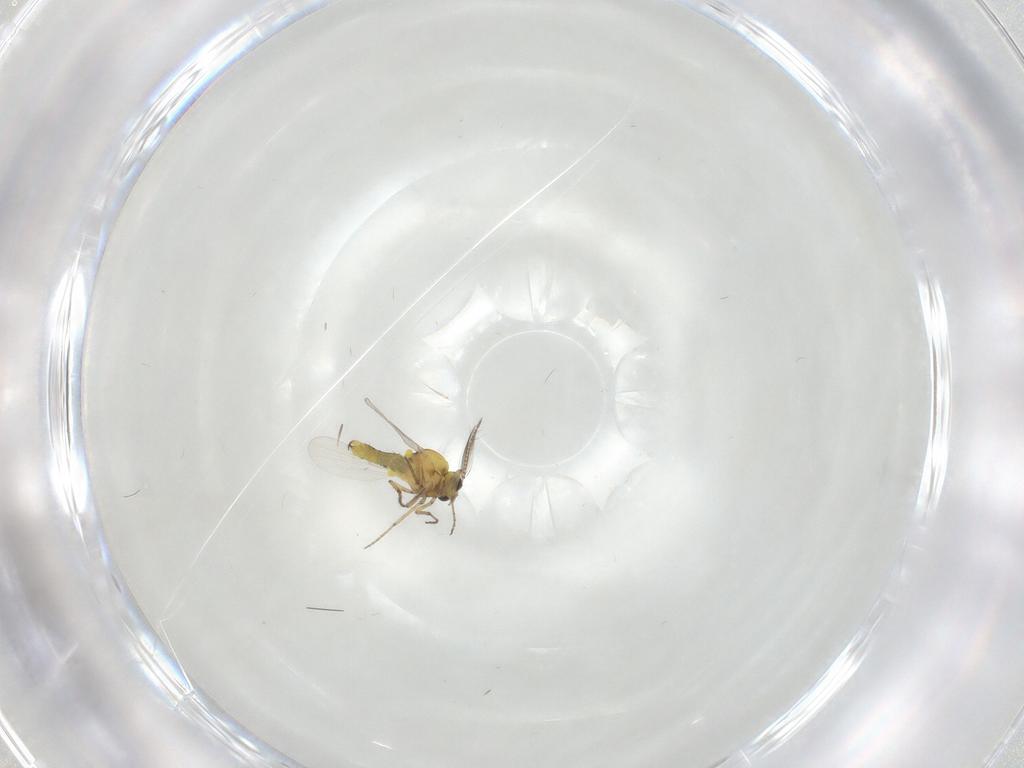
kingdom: Animalia
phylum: Arthropoda
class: Insecta
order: Diptera
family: Ceratopogonidae
